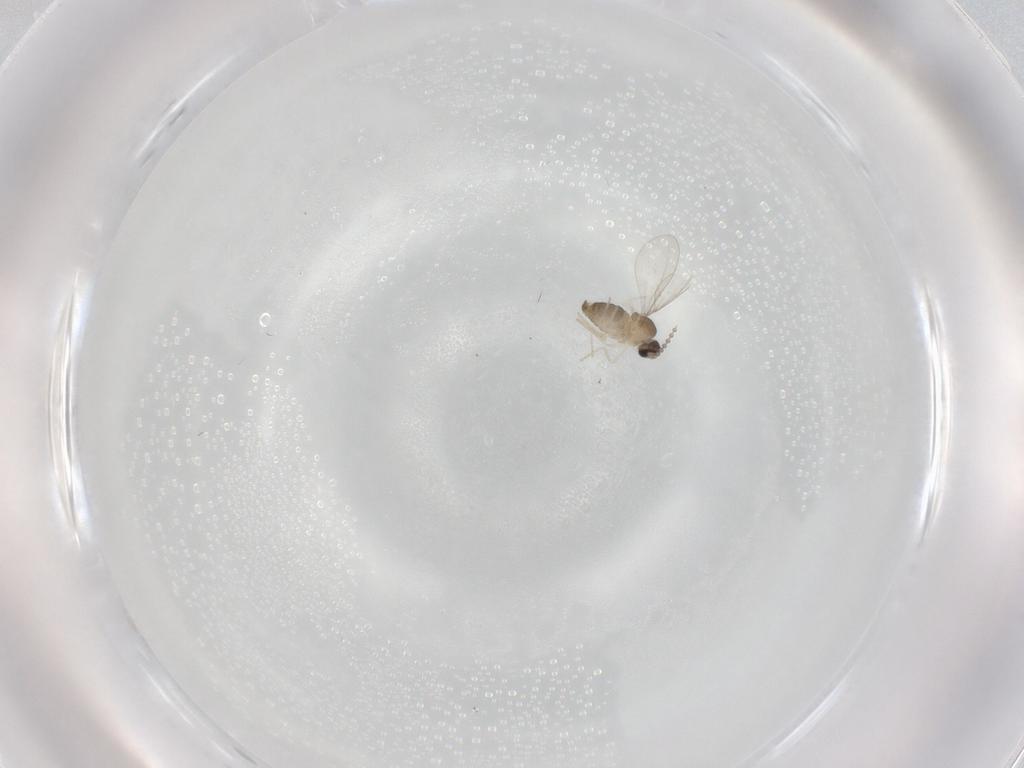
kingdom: Animalia
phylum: Arthropoda
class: Insecta
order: Diptera
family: Cecidomyiidae
